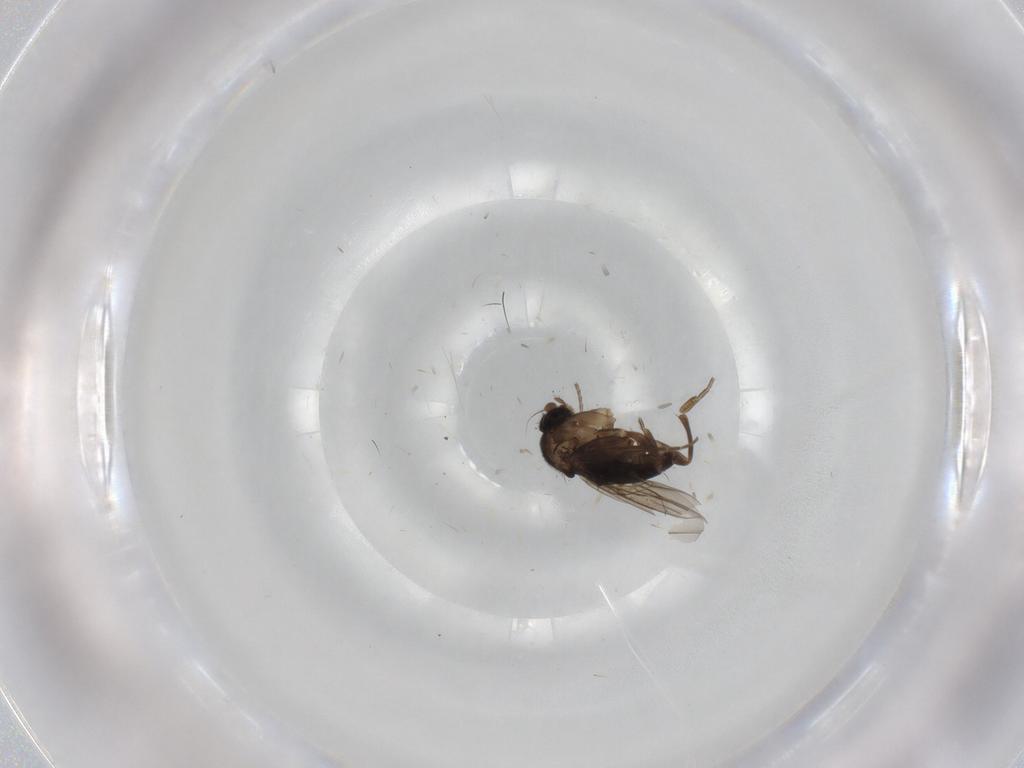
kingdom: Animalia
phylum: Arthropoda
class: Insecta
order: Diptera
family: Phoridae
